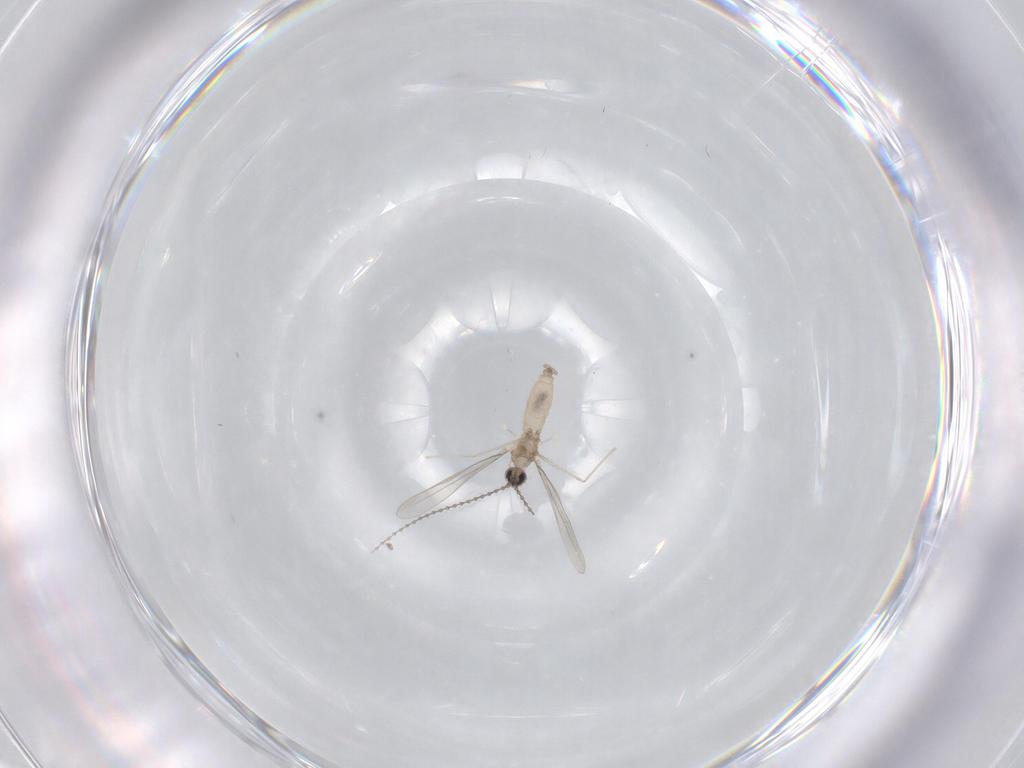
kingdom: Animalia
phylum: Arthropoda
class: Insecta
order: Diptera
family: Cecidomyiidae
